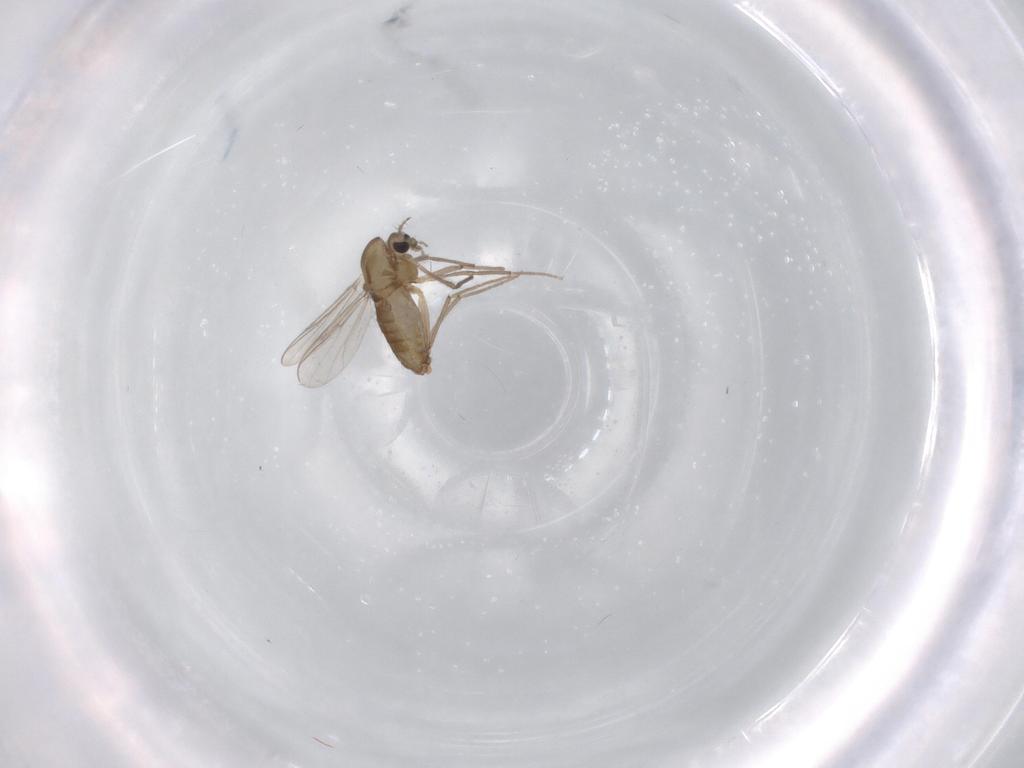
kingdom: Animalia
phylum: Arthropoda
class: Insecta
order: Diptera
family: Chironomidae
